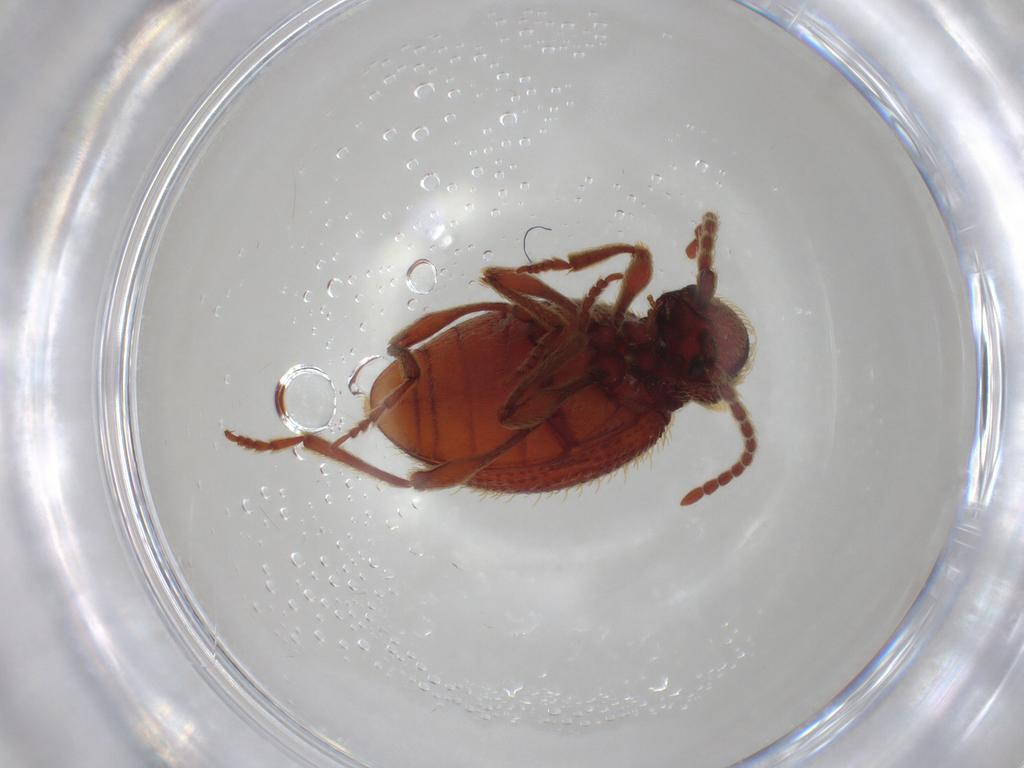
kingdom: Animalia
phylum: Arthropoda
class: Insecta
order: Coleoptera
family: Ptinidae
